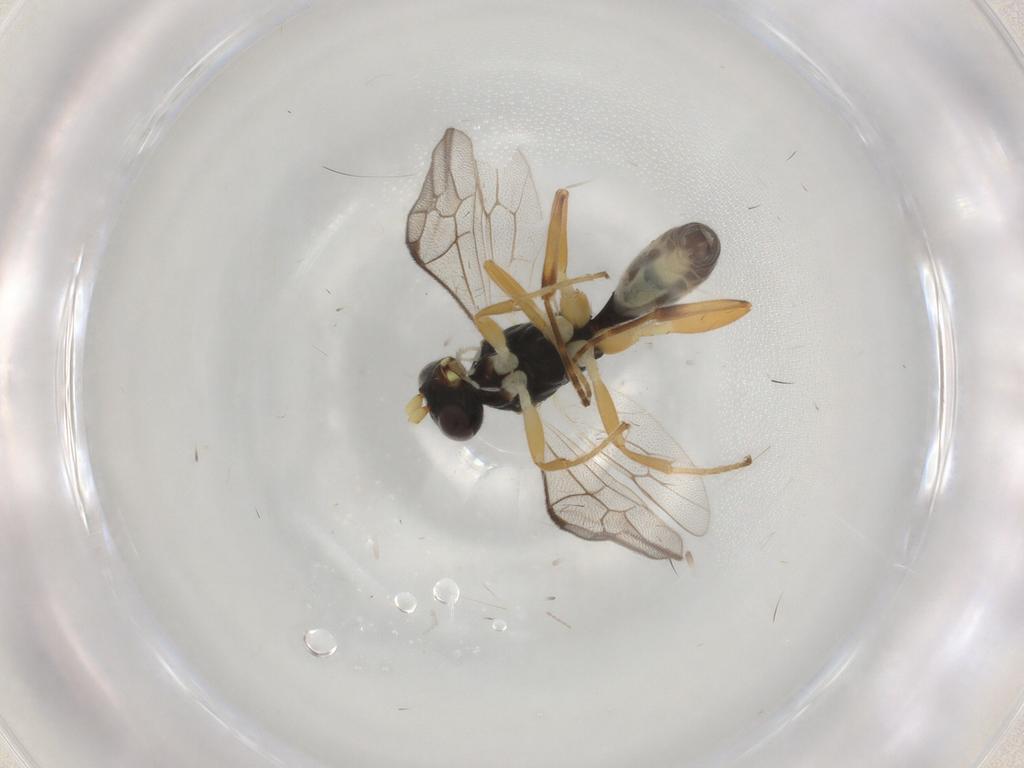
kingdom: Animalia
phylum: Arthropoda
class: Insecta
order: Hymenoptera
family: Ichneumonidae
